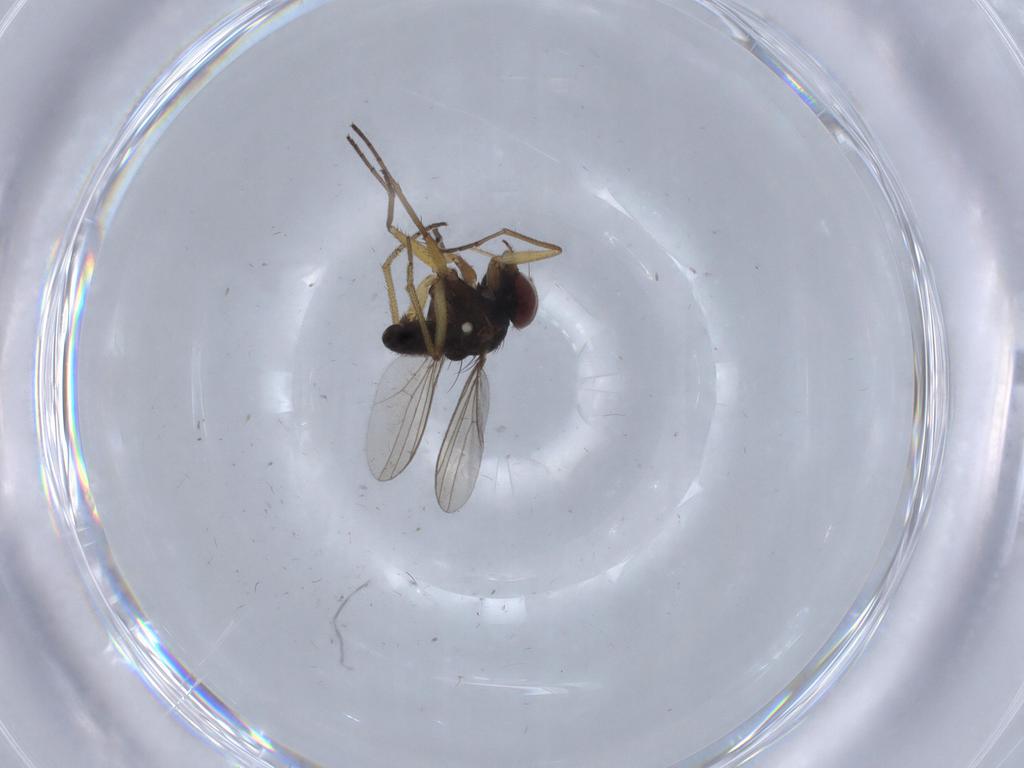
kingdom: Animalia
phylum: Arthropoda
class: Insecta
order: Diptera
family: Dolichopodidae
